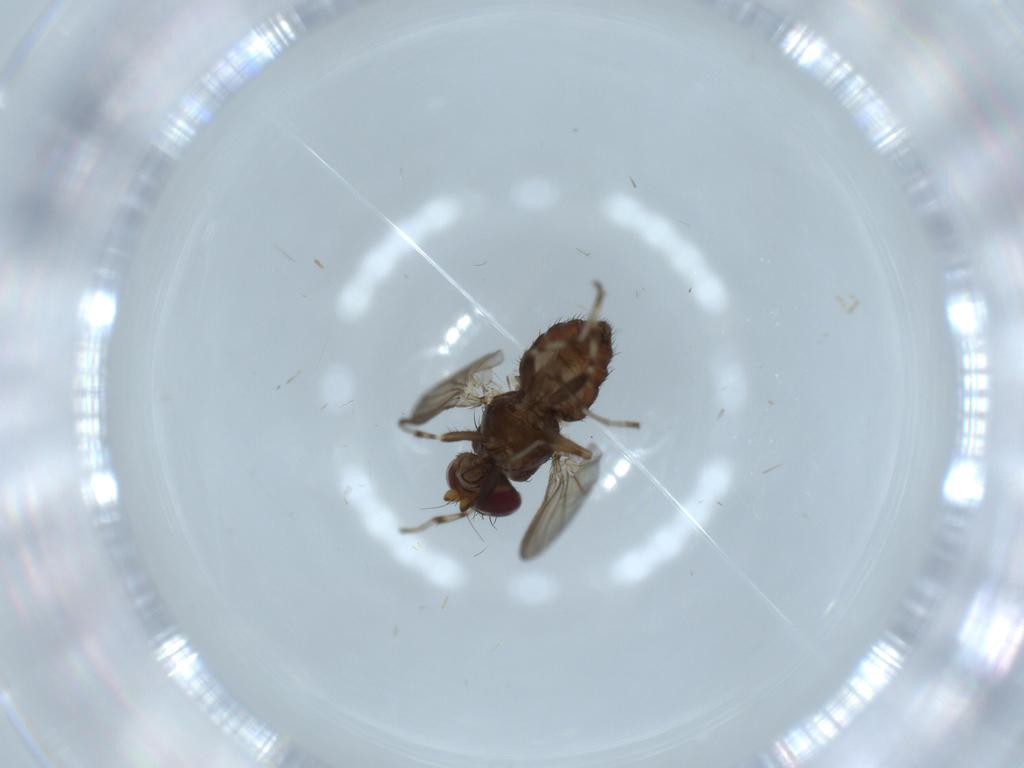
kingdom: Animalia
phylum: Arthropoda
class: Insecta
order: Diptera
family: Heleomyzidae
